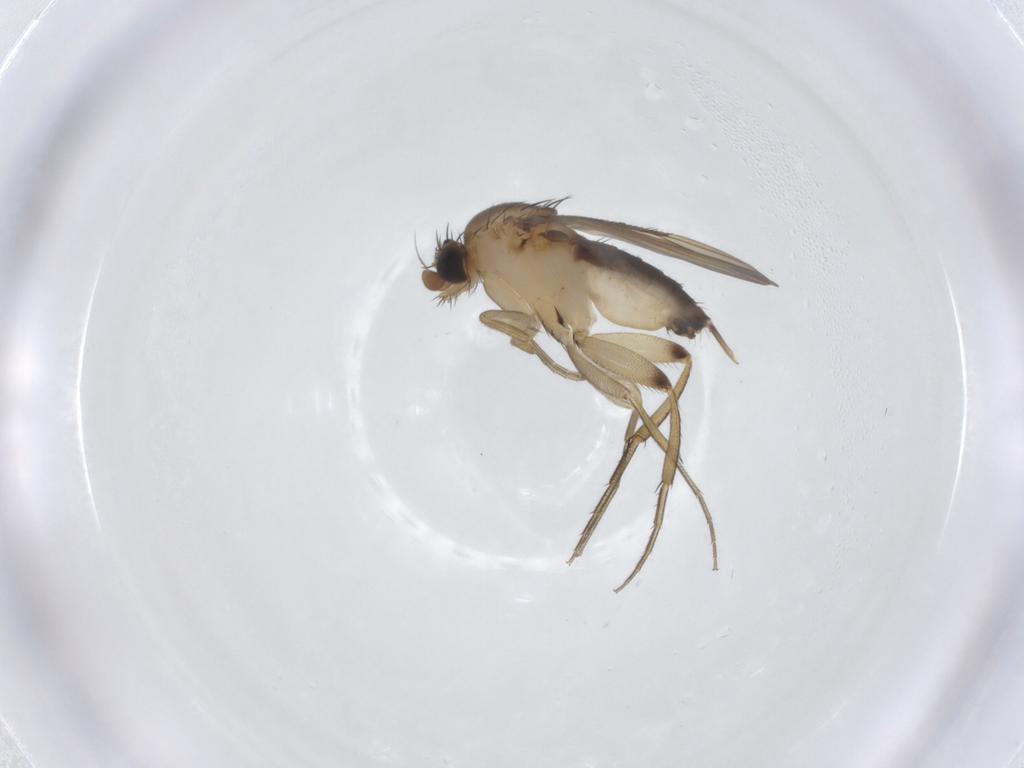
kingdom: Animalia
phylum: Arthropoda
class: Insecta
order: Diptera
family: Phoridae
